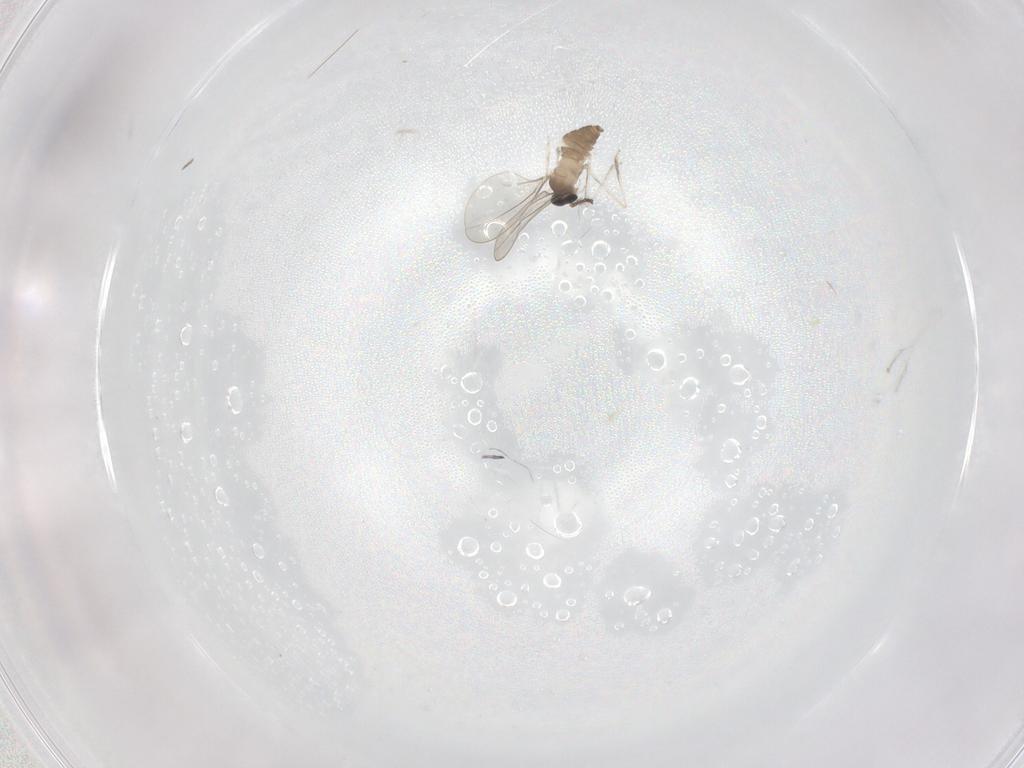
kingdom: Animalia
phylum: Arthropoda
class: Insecta
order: Diptera
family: Cecidomyiidae
